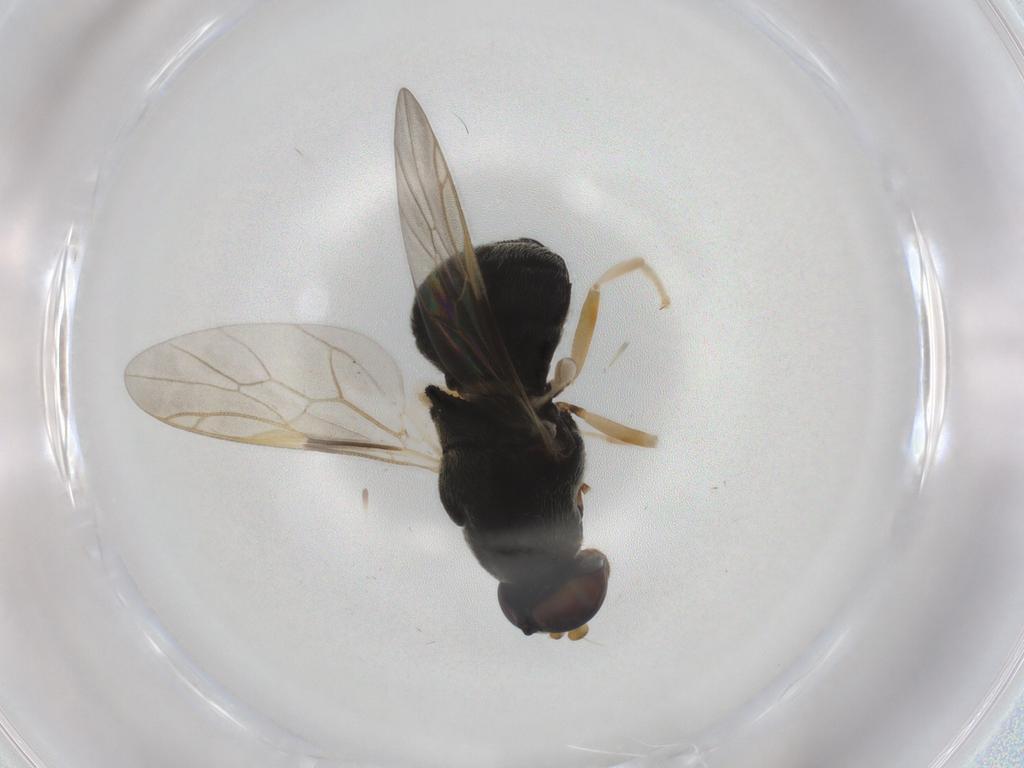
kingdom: Animalia
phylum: Arthropoda
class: Insecta
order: Diptera
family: Stratiomyidae
